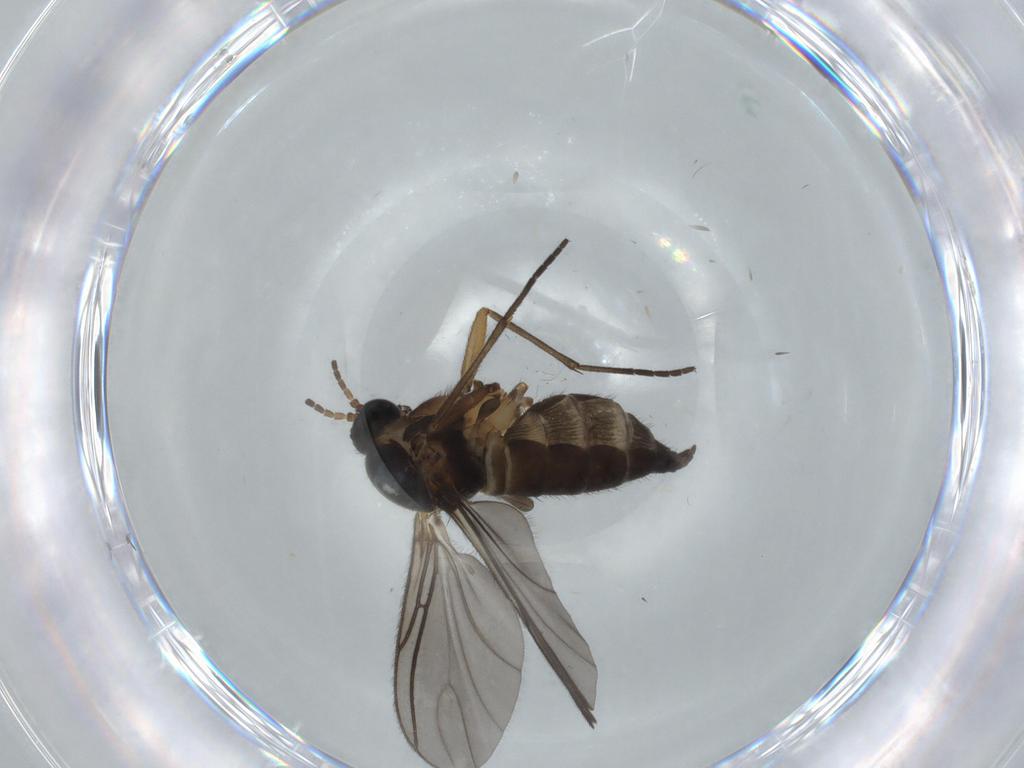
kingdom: Animalia
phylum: Arthropoda
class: Insecta
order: Diptera
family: Sciaridae
